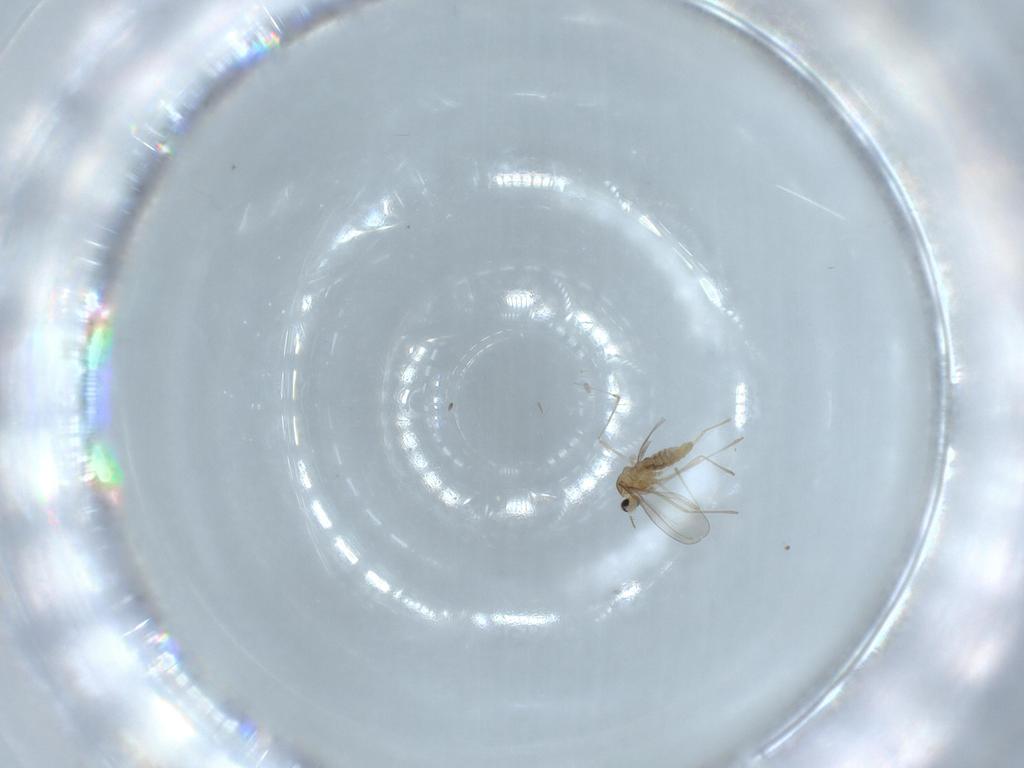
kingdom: Animalia
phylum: Arthropoda
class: Insecta
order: Diptera
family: Cecidomyiidae
